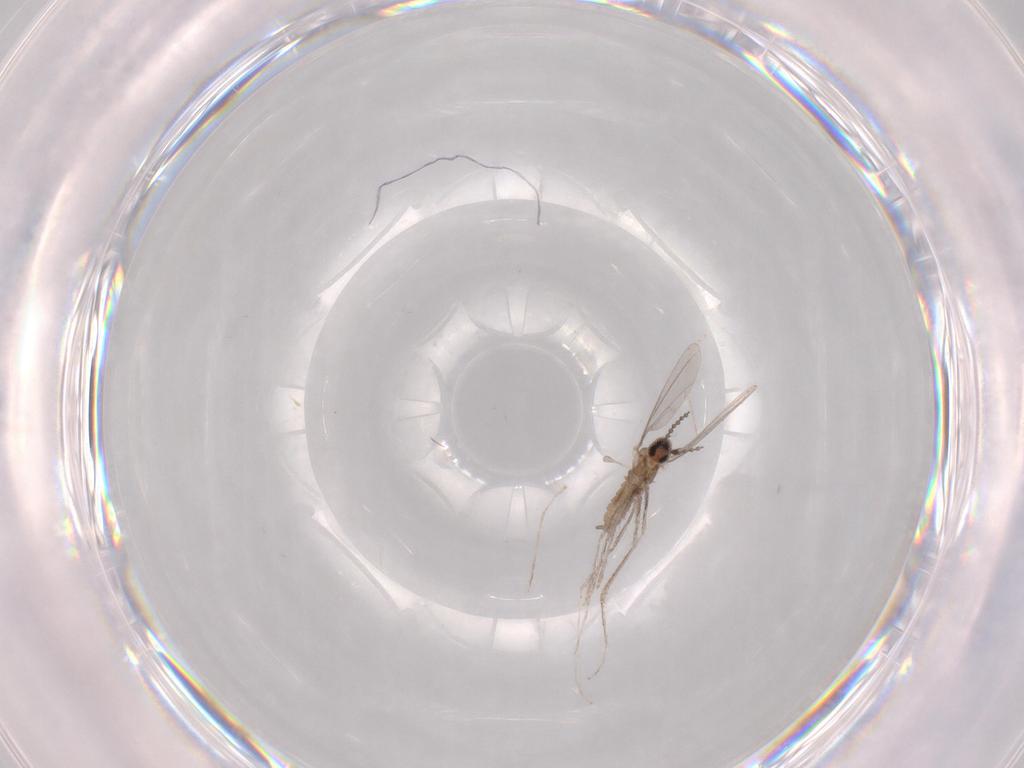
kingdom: Animalia
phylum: Arthropoda
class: Insecta
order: Diptera
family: Cecidomyiidae
